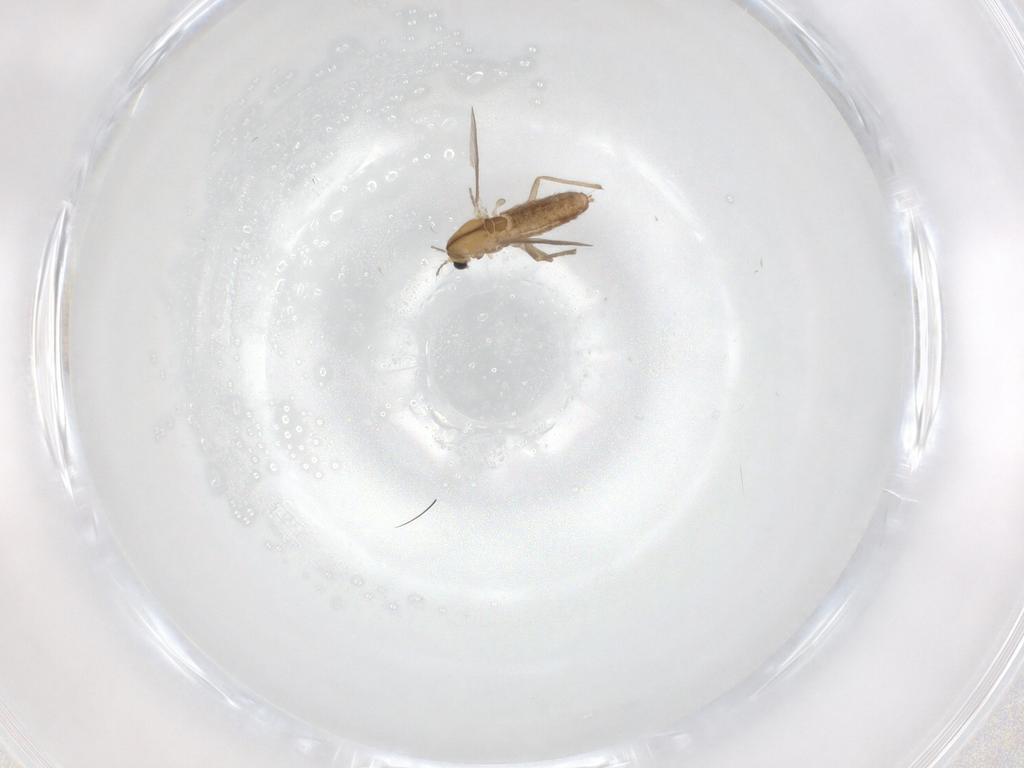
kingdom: Animalia
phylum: Arthropoda
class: Insecta
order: Diptera
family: Chironomidae
